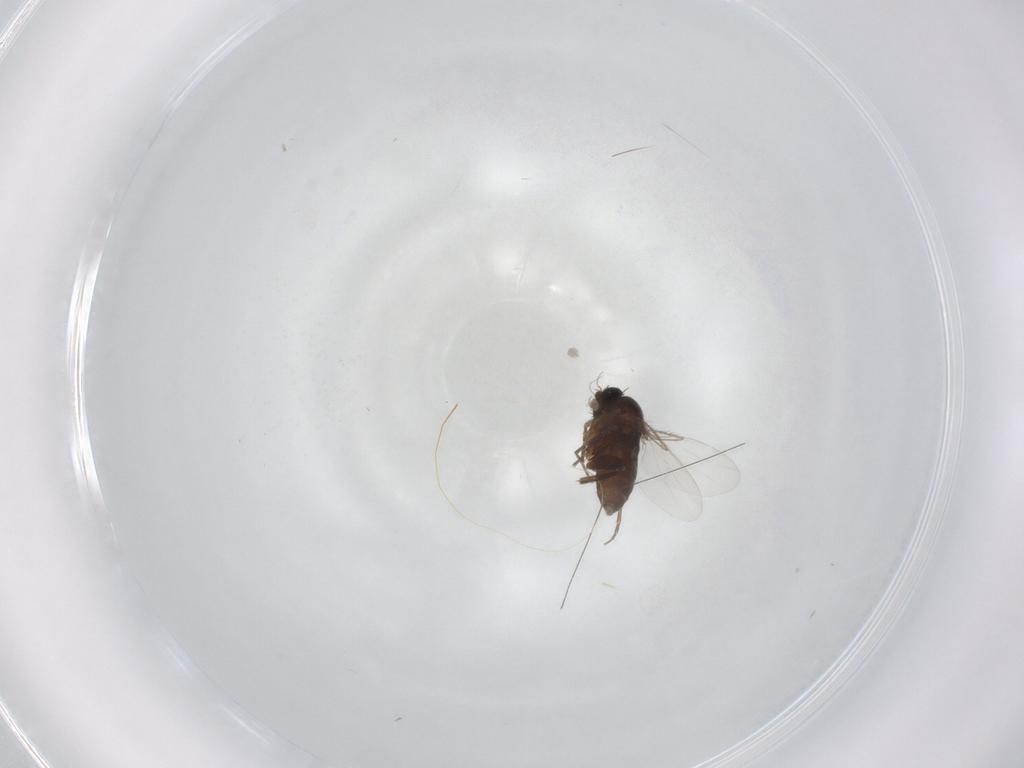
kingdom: Animalia
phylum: Arthropoda
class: Insecta
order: Diptera
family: Phoridae
